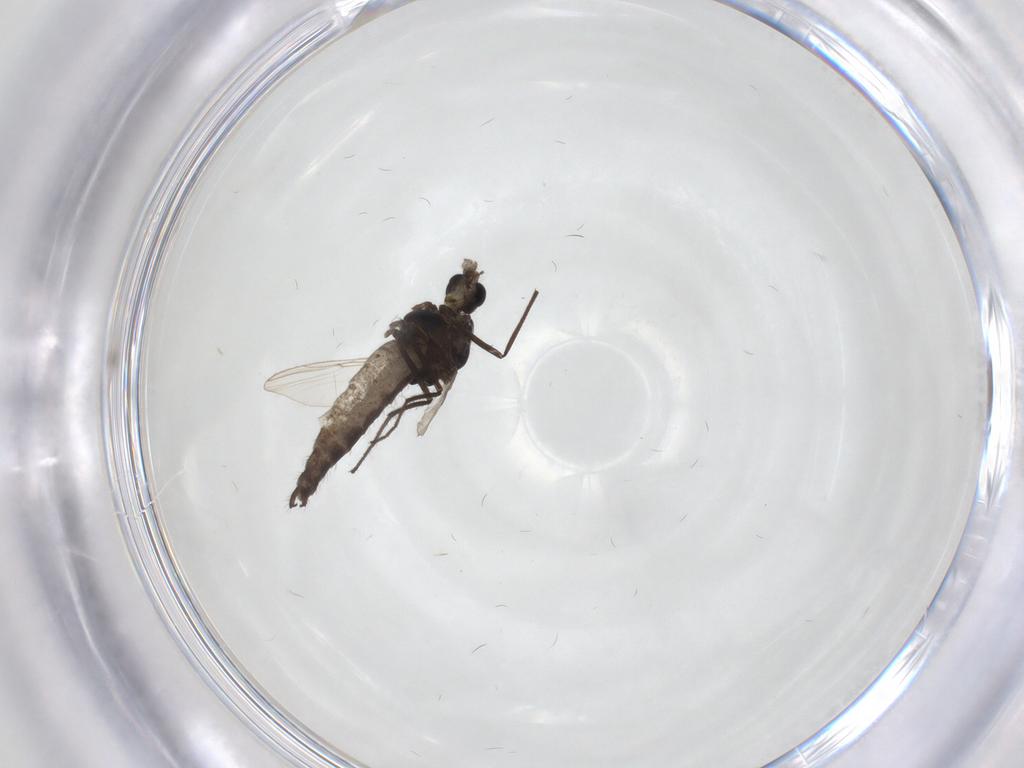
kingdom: Animalia
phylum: Arthropoda
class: Insecta
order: Diptera
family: Chironomidae
